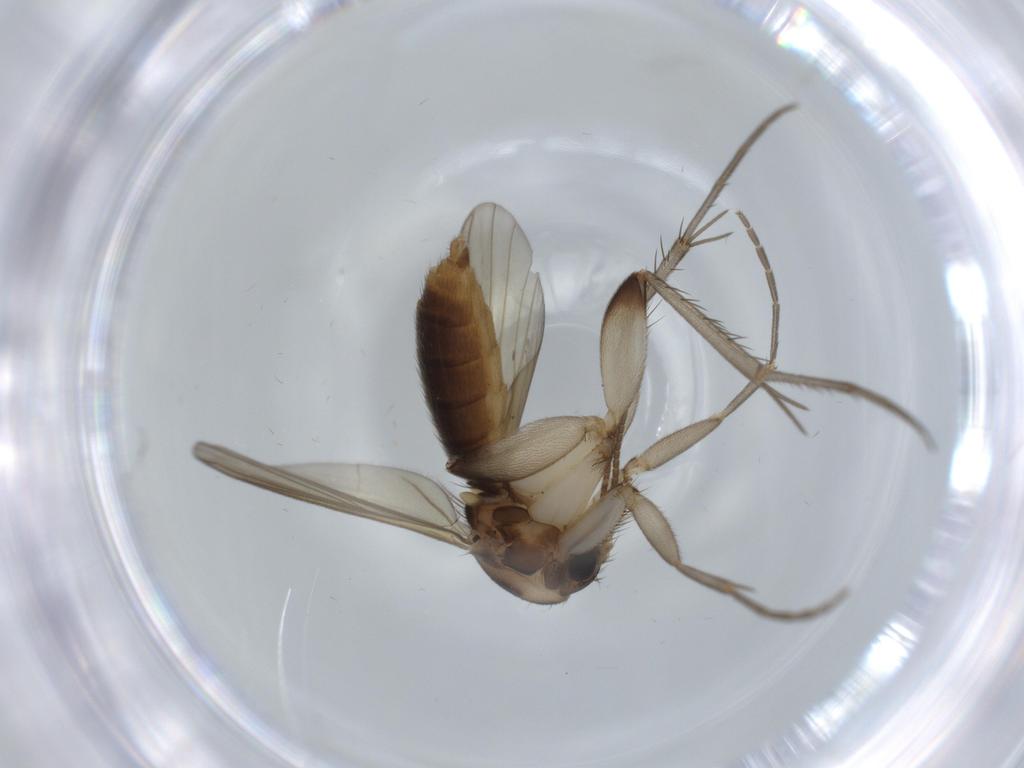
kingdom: Animalia
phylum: Arthropoda
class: Insecta
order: Diptera
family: Mycetophilidae
